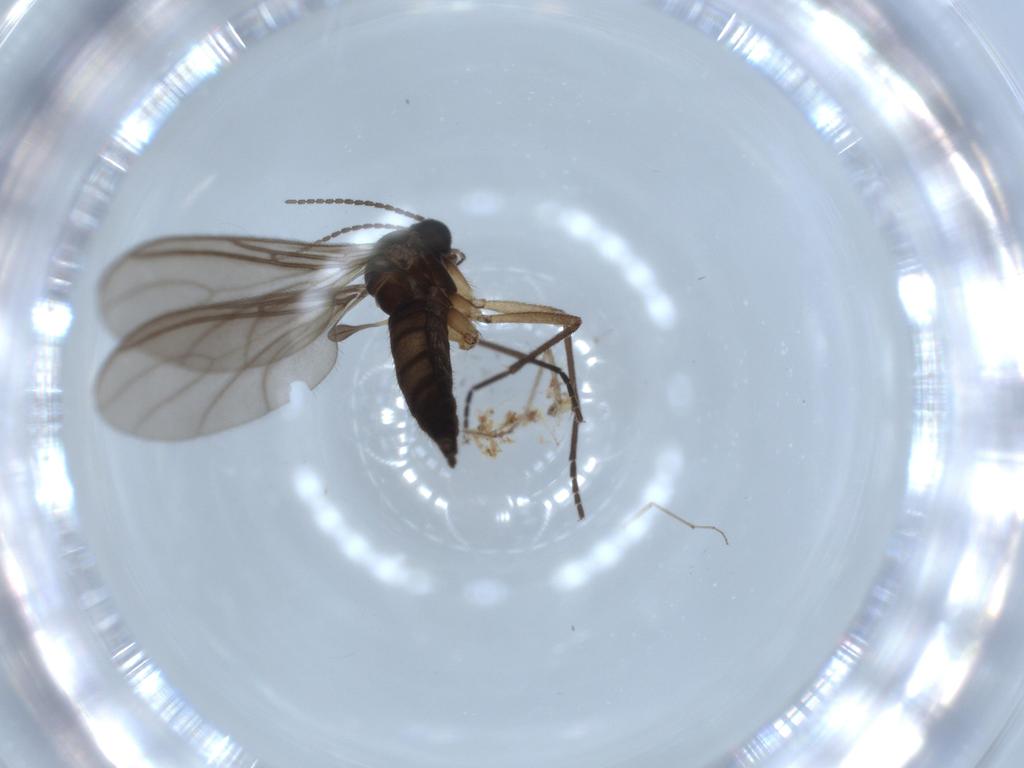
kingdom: Animalia
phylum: Arthropoda
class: Insecta
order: Diptera
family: Chironomidae
